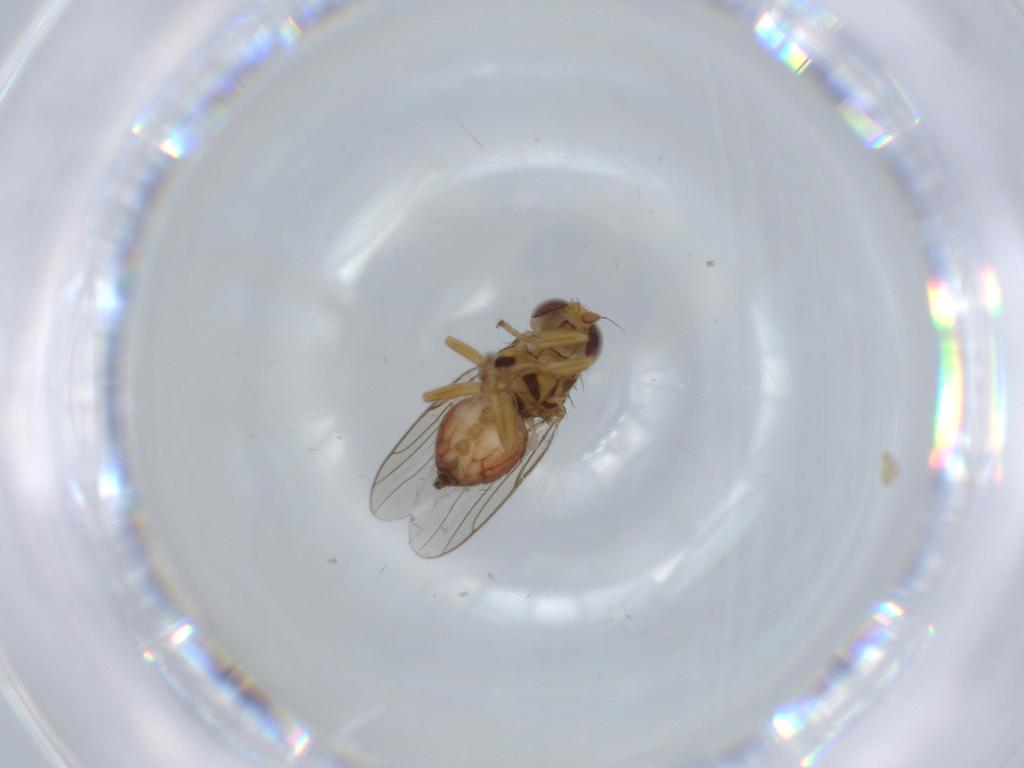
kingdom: Animalia
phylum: Arthropoda
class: Insecta
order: Diptera
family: Chloropidae
